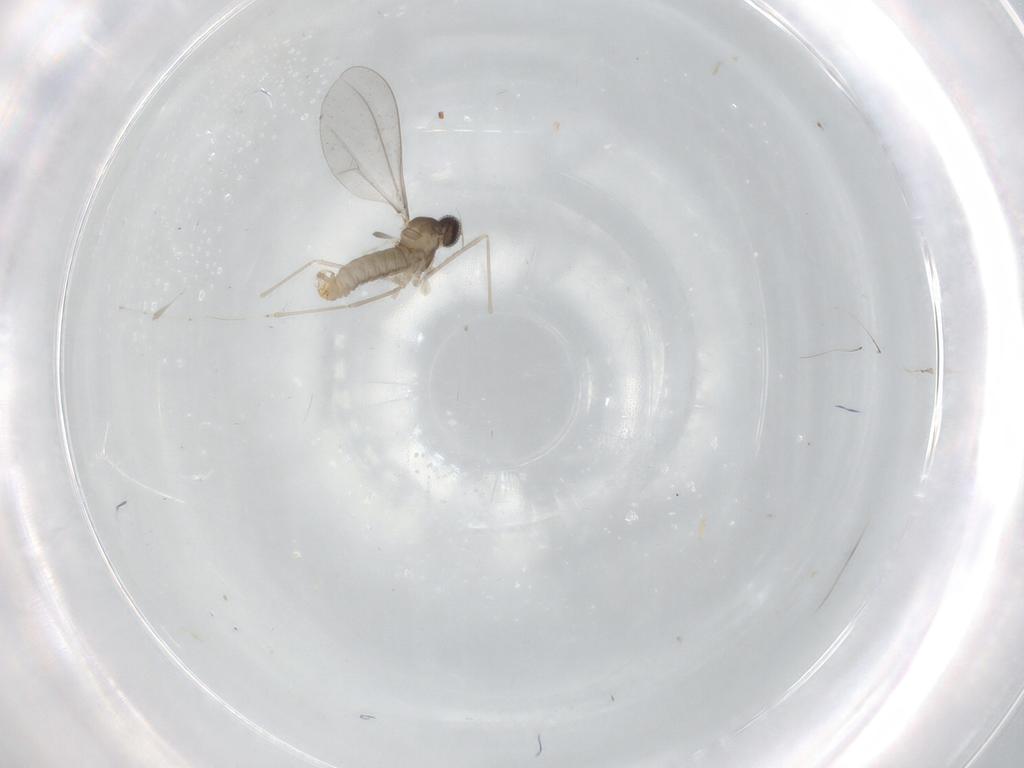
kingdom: Animalia
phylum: Arthropoda
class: Insecta
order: Diptera
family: Cecidomyiidae
